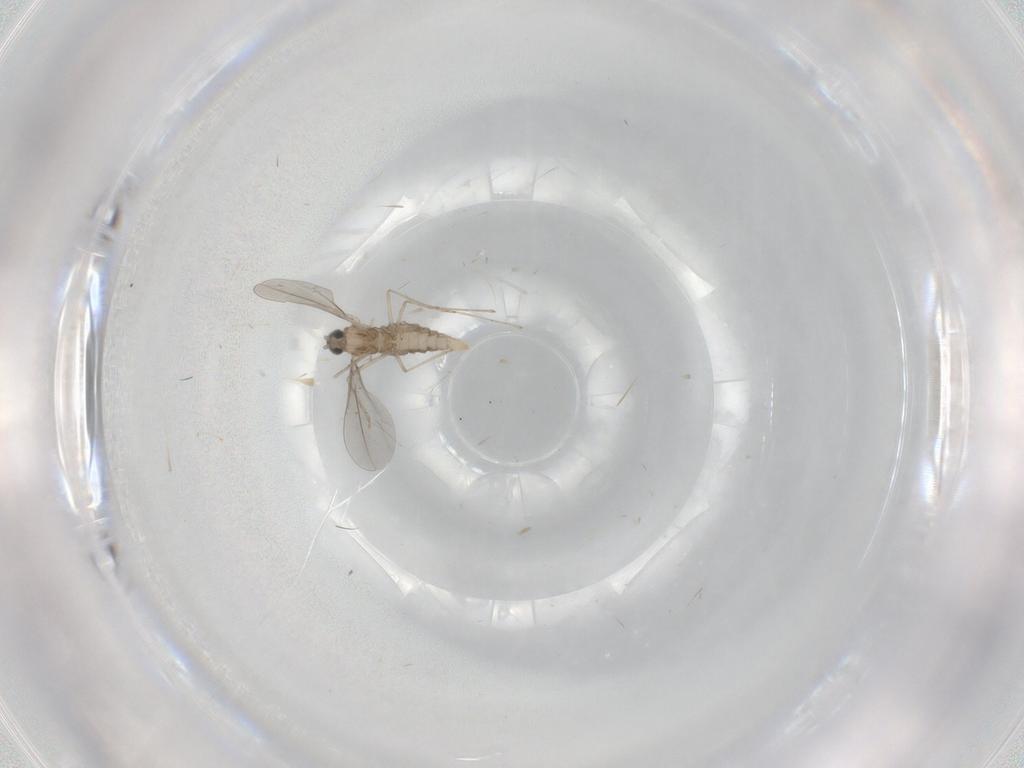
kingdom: Animalia
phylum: Arthropoda
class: Insecta
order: Diptera
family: Cecidomyiidae
